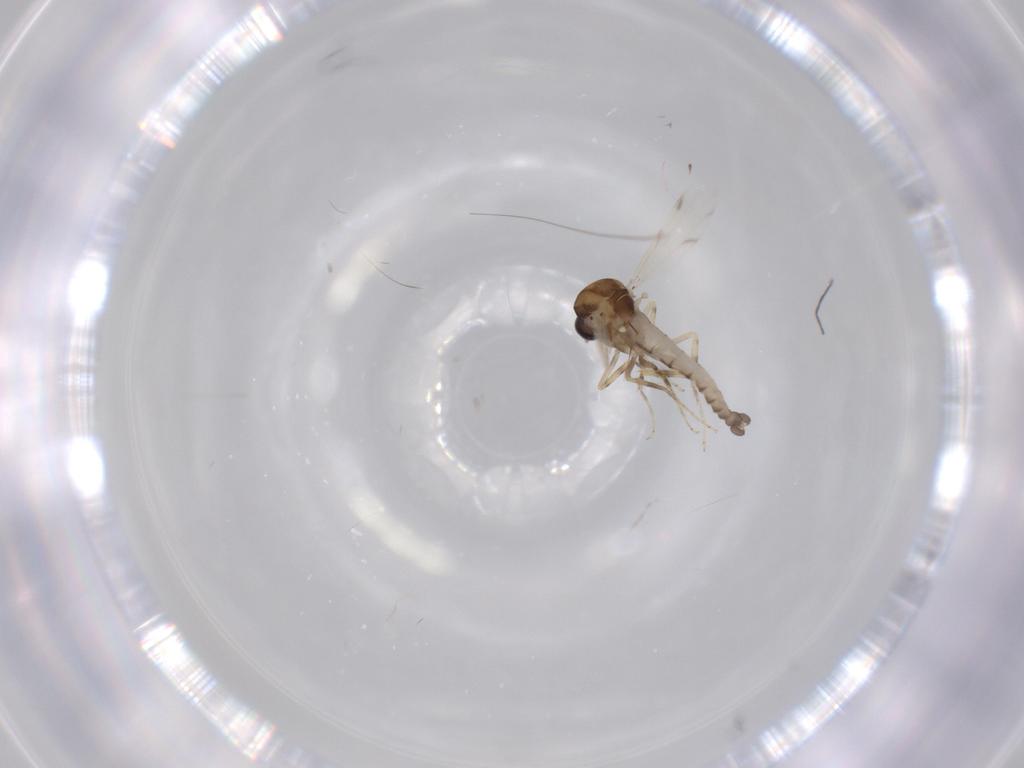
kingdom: Animalia
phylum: Arthropoda
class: Insecta
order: Diptera
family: Ceratopogonidae
